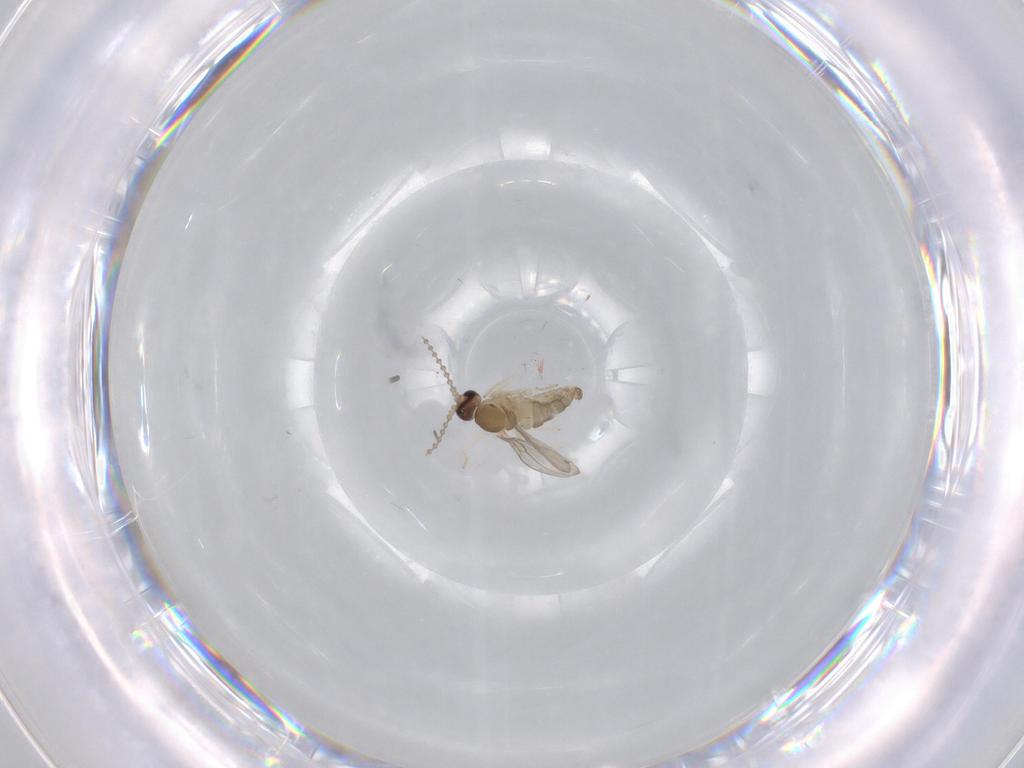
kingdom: Animalia
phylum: Arthropoda
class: Insecta
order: Diptera
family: Cecidomyiidae
